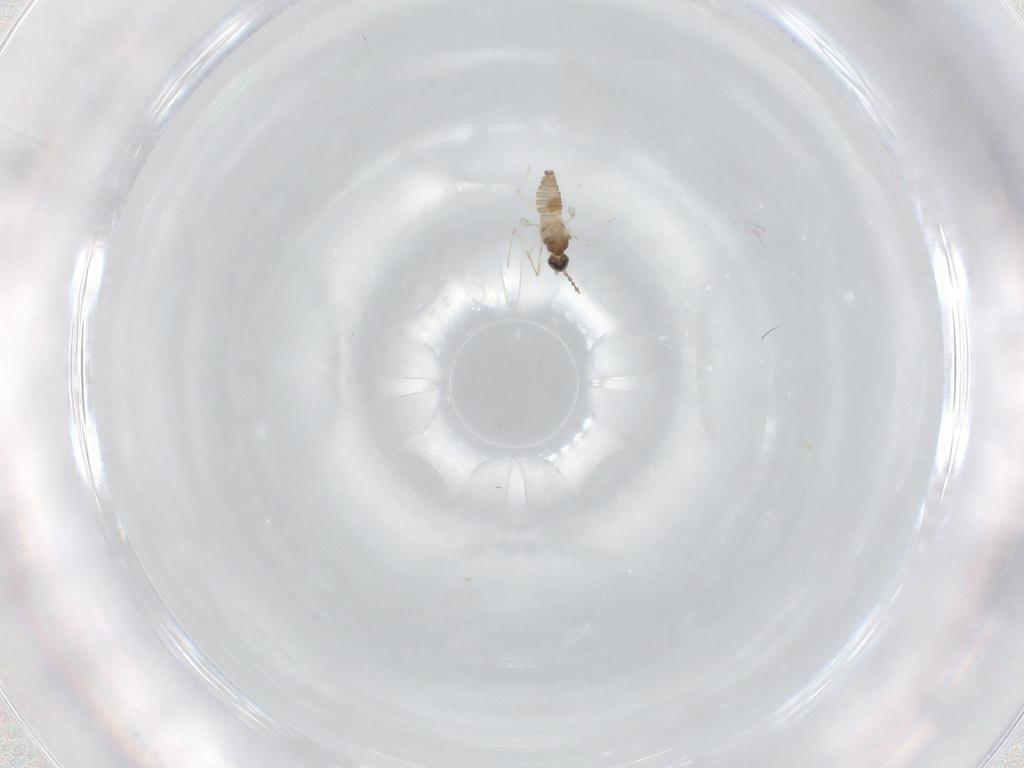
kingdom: Animalia
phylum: Arthropoda
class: Insecta
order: Diptera
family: Cecidomyiidae
